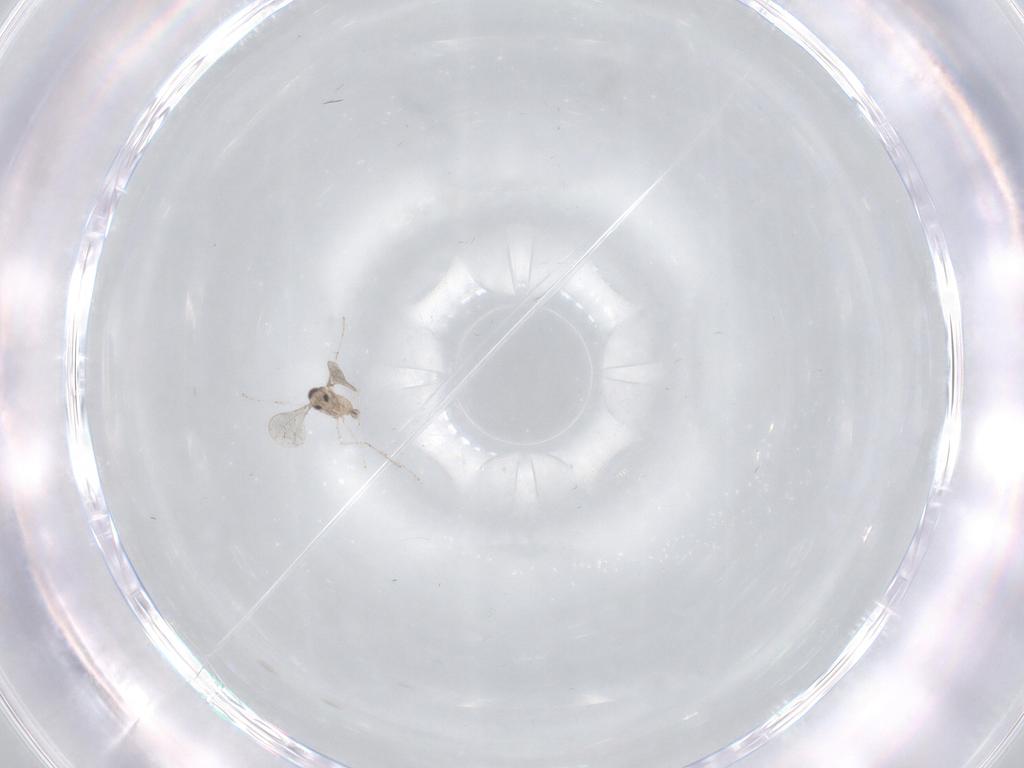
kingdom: Animalia
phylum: Arthropoda
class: Insecta
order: Diptera
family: Cecidomyiidae
